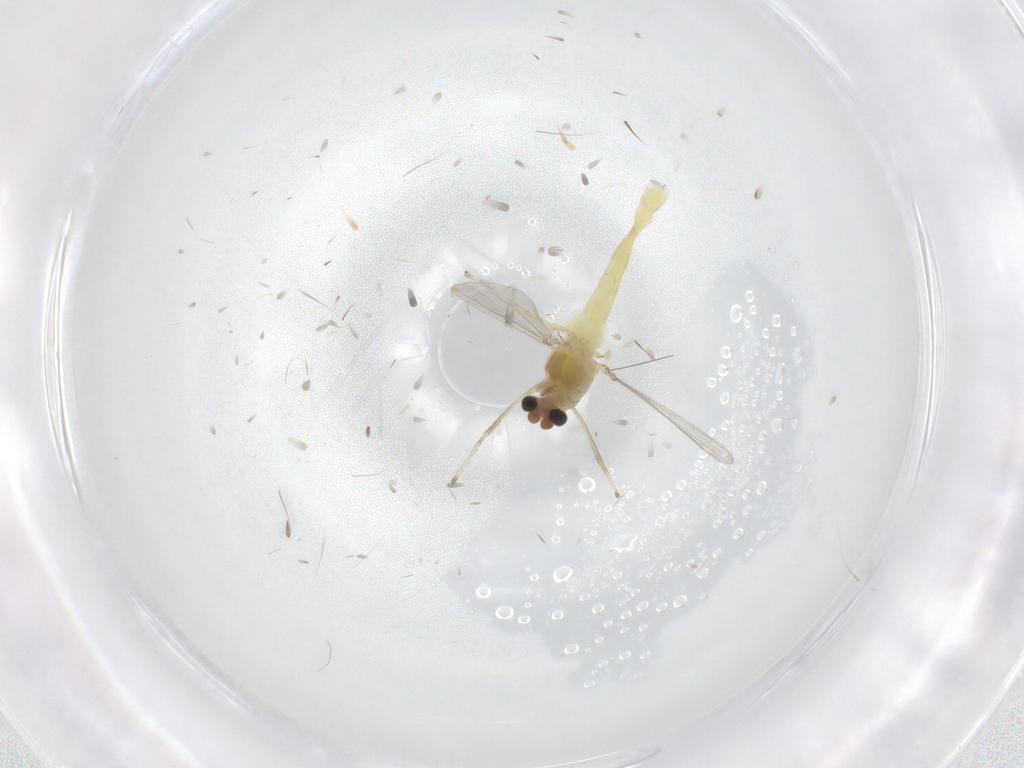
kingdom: Animalia
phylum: Arthropoda
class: Insecta
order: Diptera
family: Chironomidae
